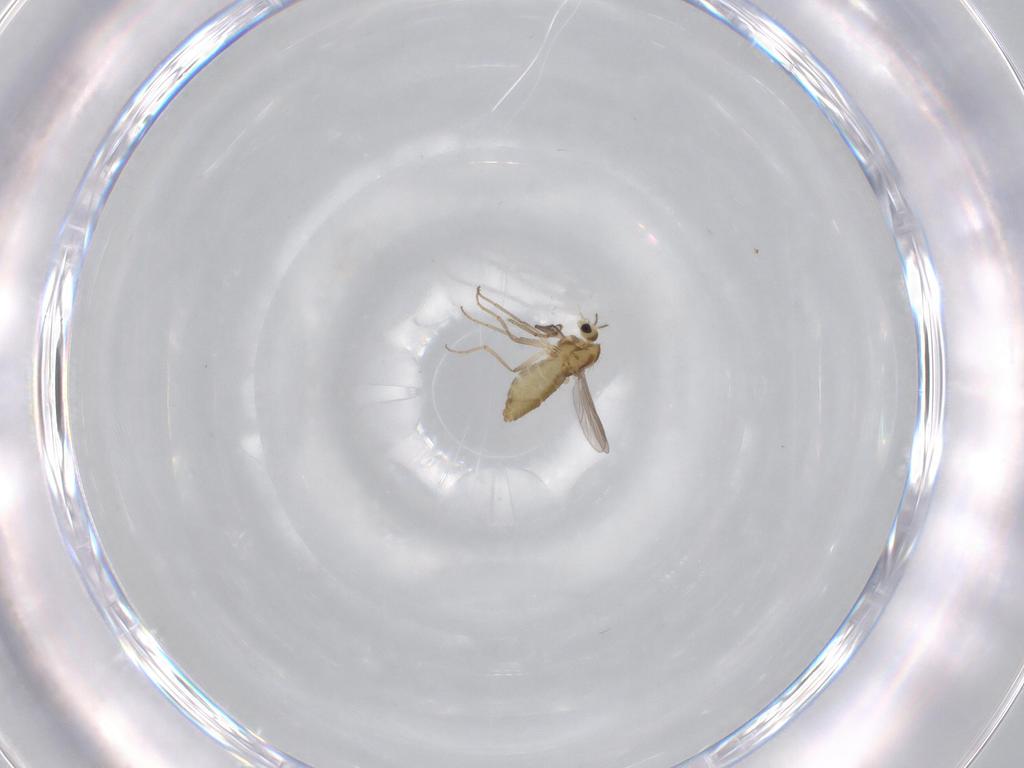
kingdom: Animalia
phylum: Arthropoda
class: Insecta
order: Diptera
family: Chironomidae
